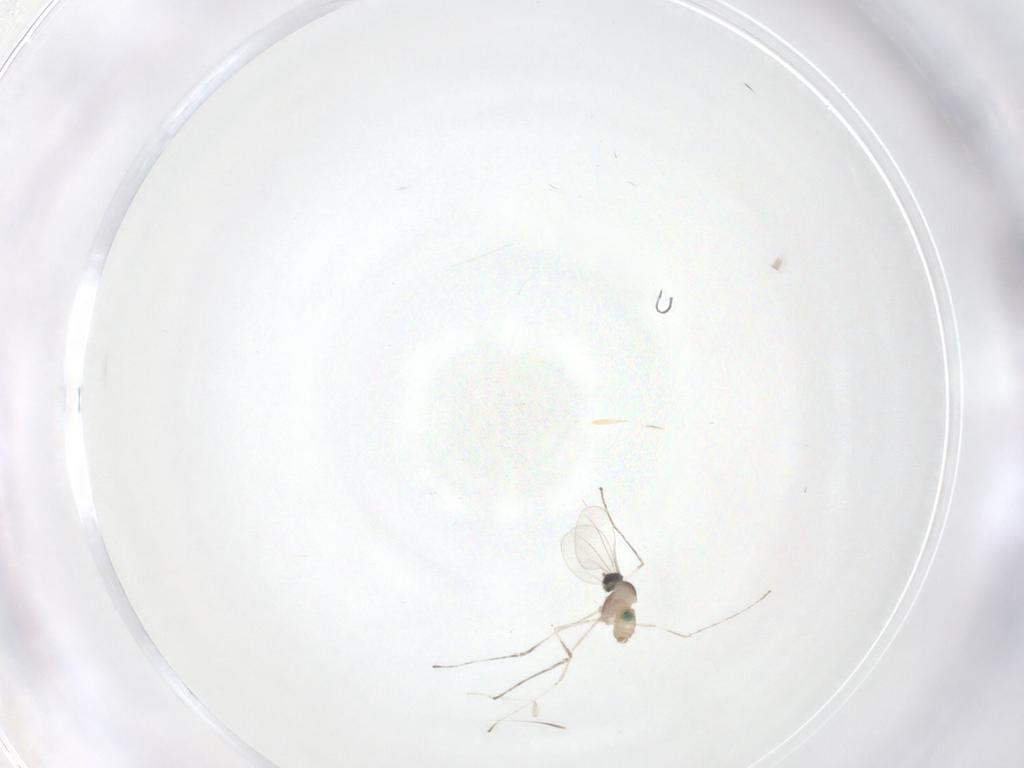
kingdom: Animalia
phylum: Arthropoda
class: Insecta
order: Diptera
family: Cecidomyiidae
